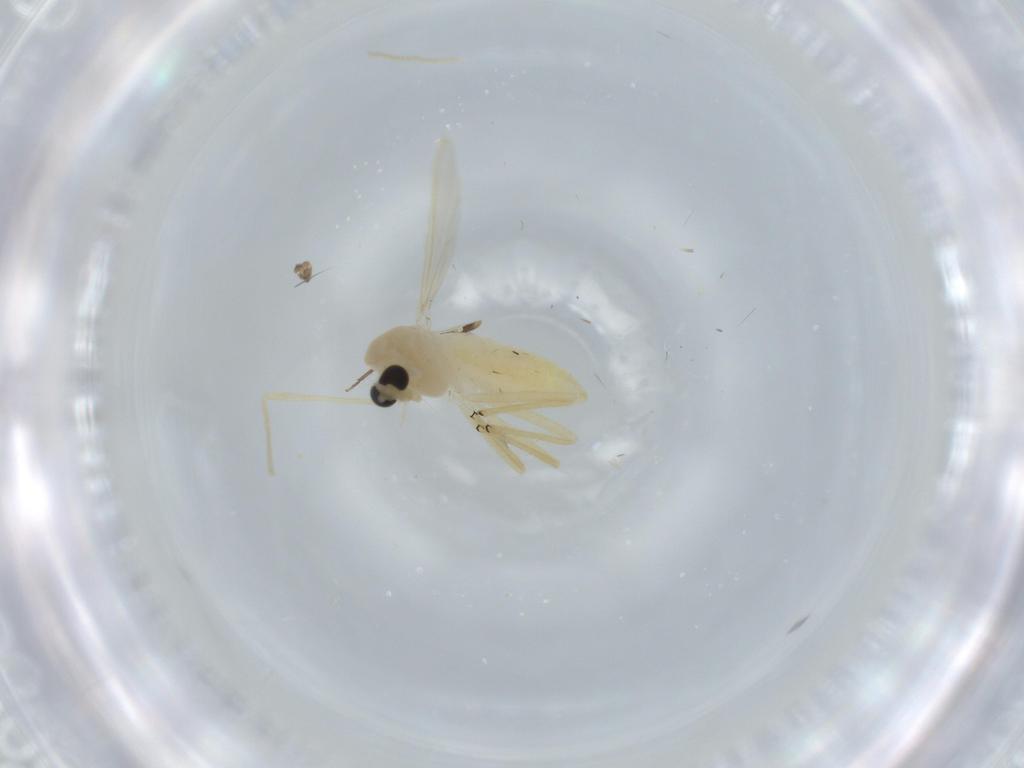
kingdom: Animalia
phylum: Arthropoda
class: Insecta
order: Diptera
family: Chironomidae
